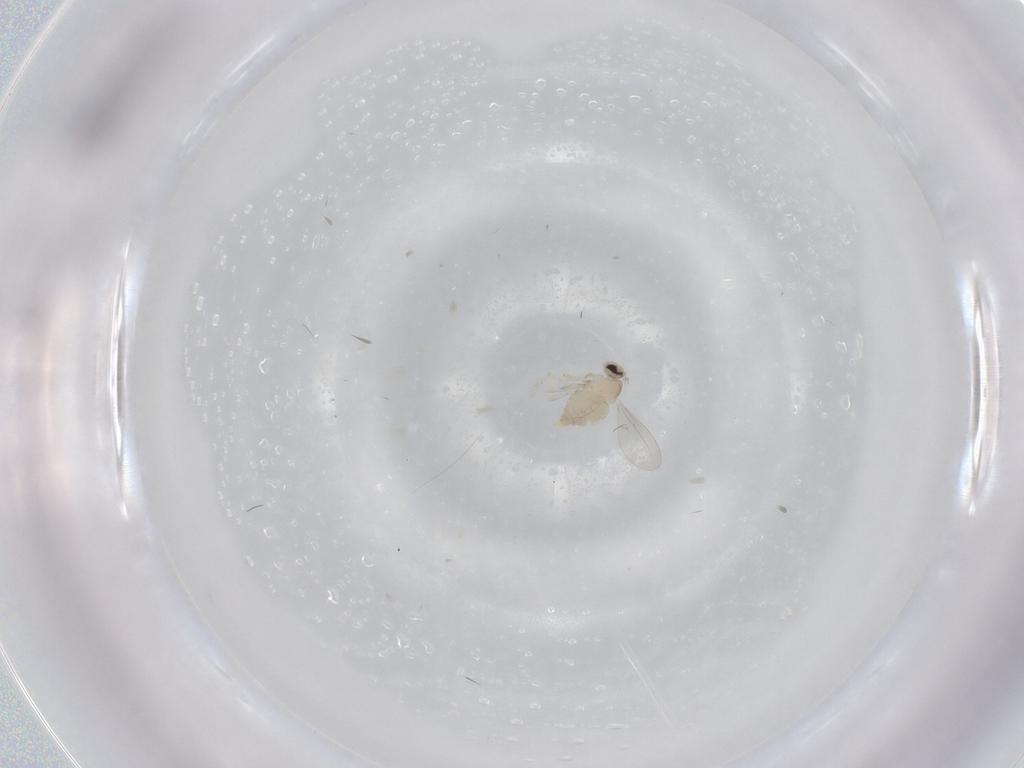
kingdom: Animalia
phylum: Arthropoda
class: Insecta
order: Diptera
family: Cecidomyiidae
